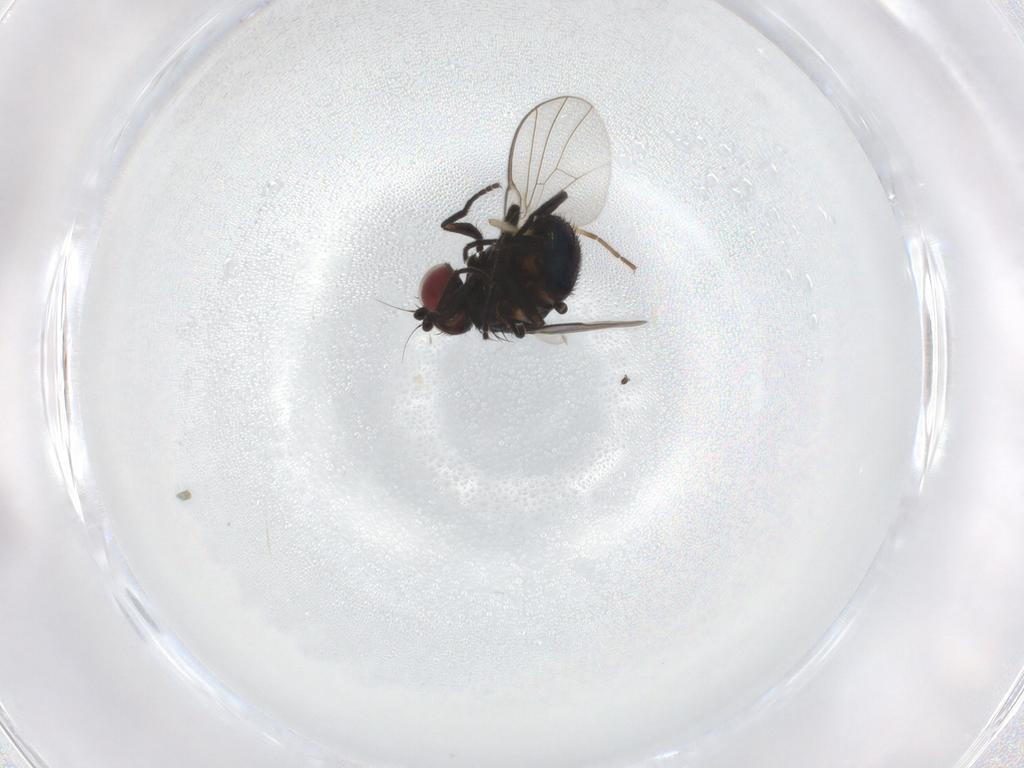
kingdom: Animalia
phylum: Arthropoda
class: Insecta
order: Diptera
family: Agromyzidae
